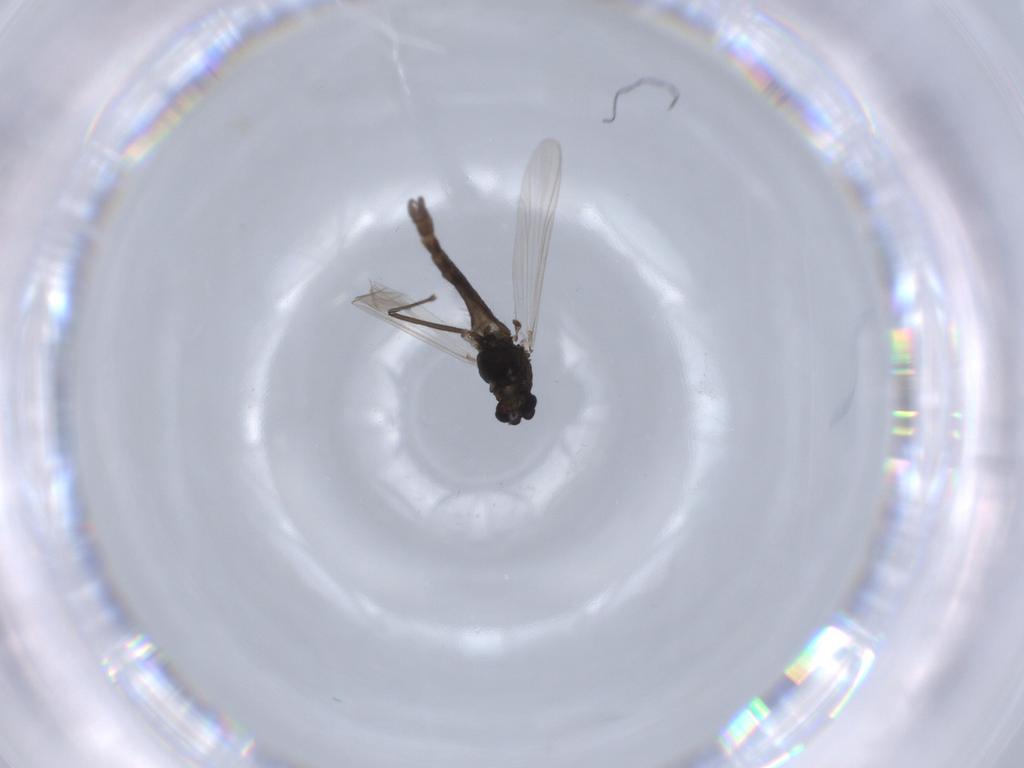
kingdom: Animalia
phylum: Arthropoda
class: Insecta
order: Diptera
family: Chironomidae
